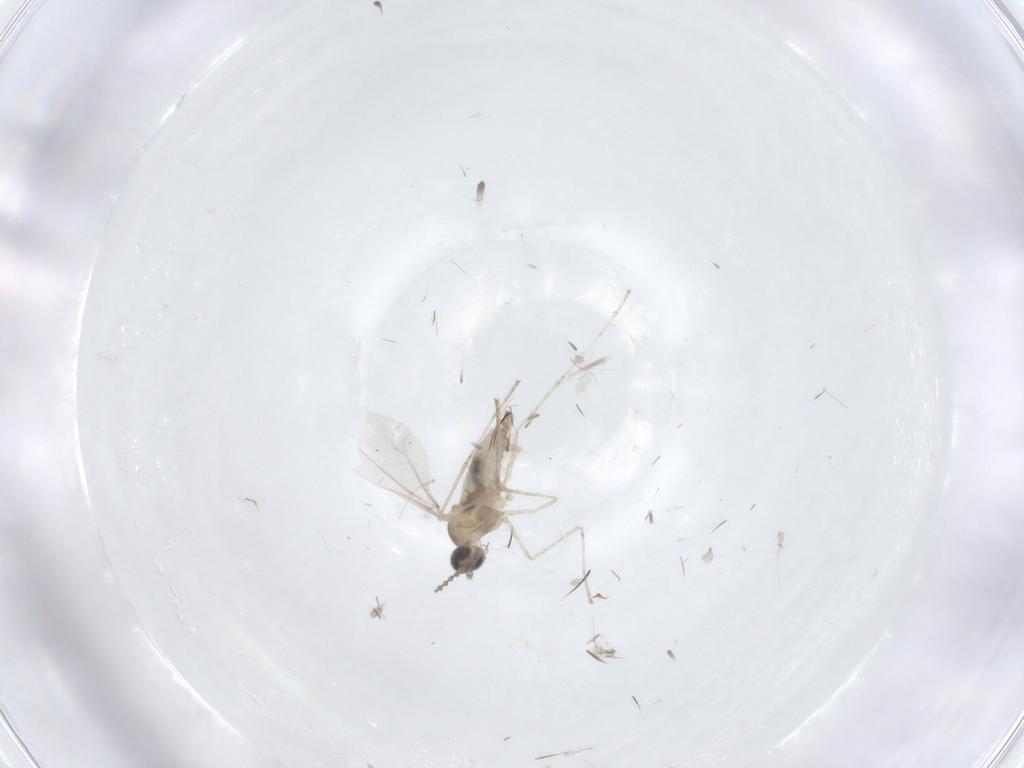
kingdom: Animalia
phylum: Arthropoda
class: Insecta
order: Diptera
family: Cecidomyiidae
